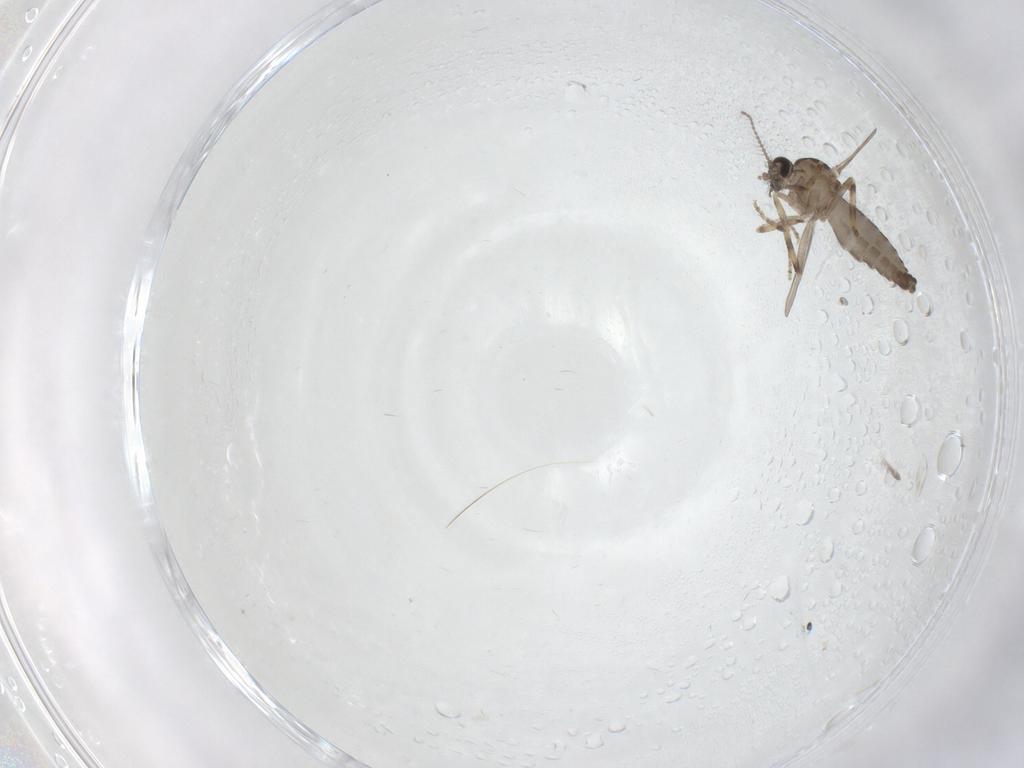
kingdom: Animalia
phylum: Arthropoda
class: Insecta
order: Diptera
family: Ceratopogonidae
